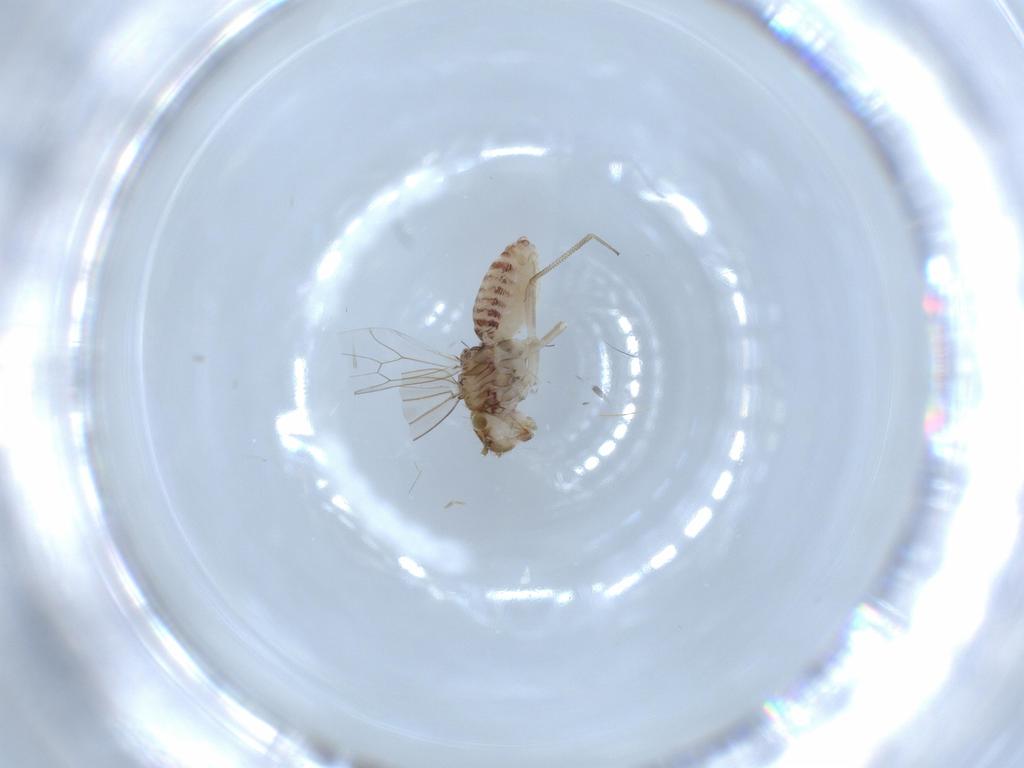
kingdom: Animalia
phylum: Arthropoda
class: Insecta
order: Psocodea
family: Ectopsocidae
